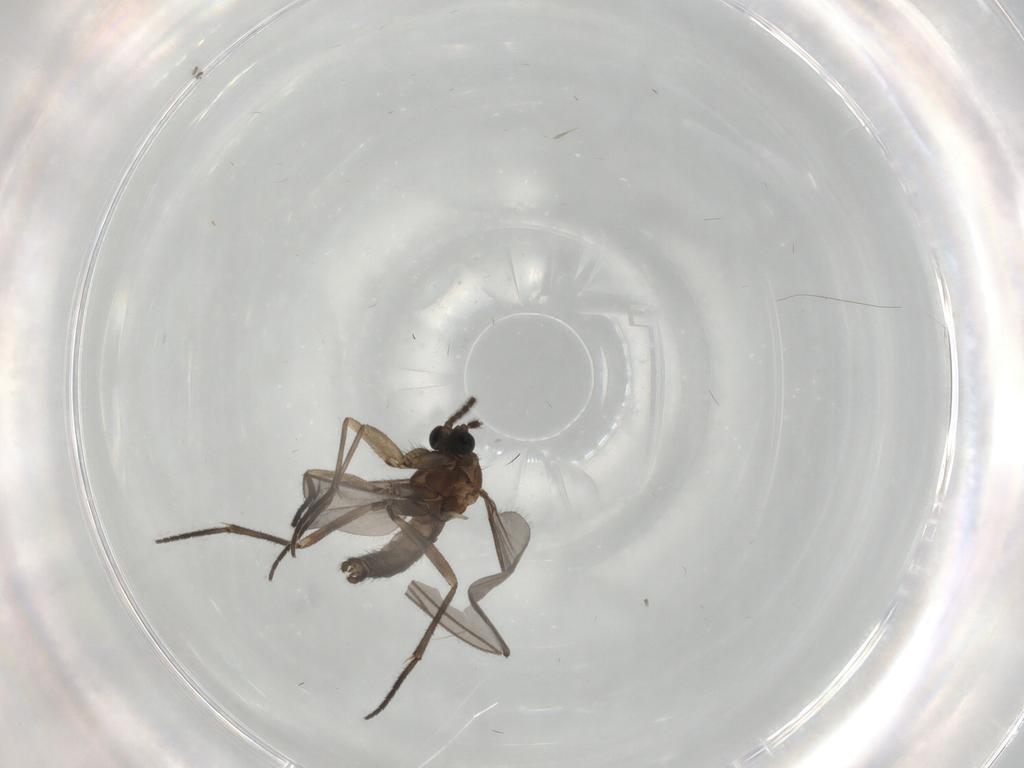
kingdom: Animalia
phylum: Arthropoda
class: Insecta
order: Diptera
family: Sciaridae
